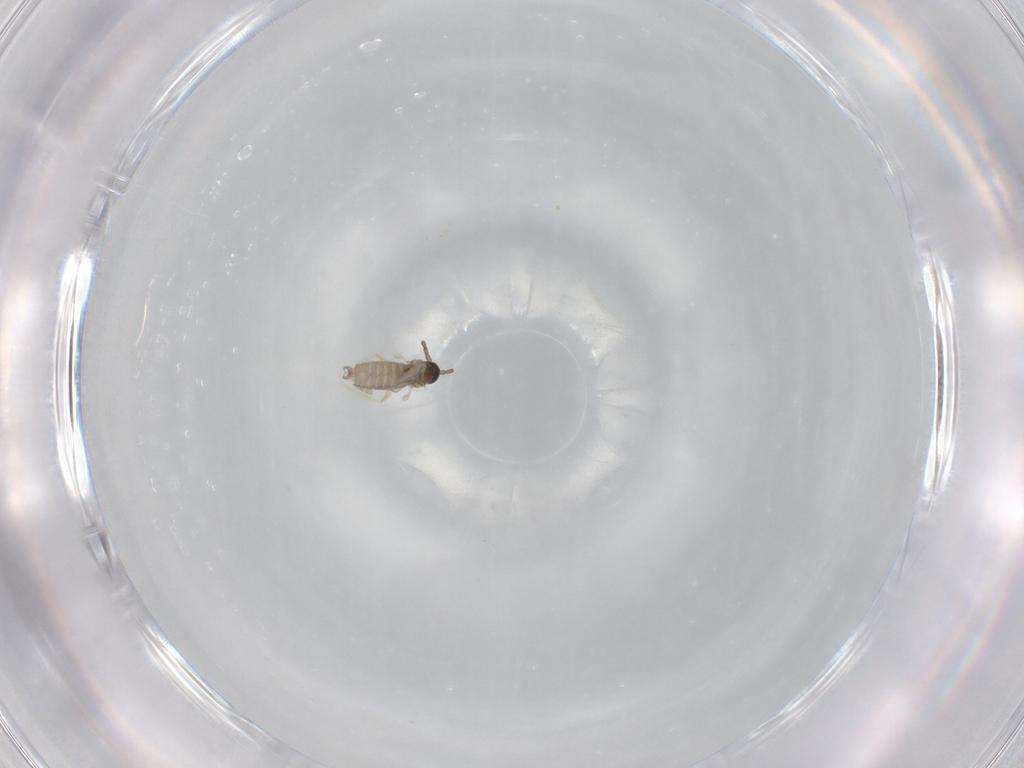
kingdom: Animalia
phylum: Arthropoda
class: Insecta
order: Diptera
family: Cecidomyiidae
